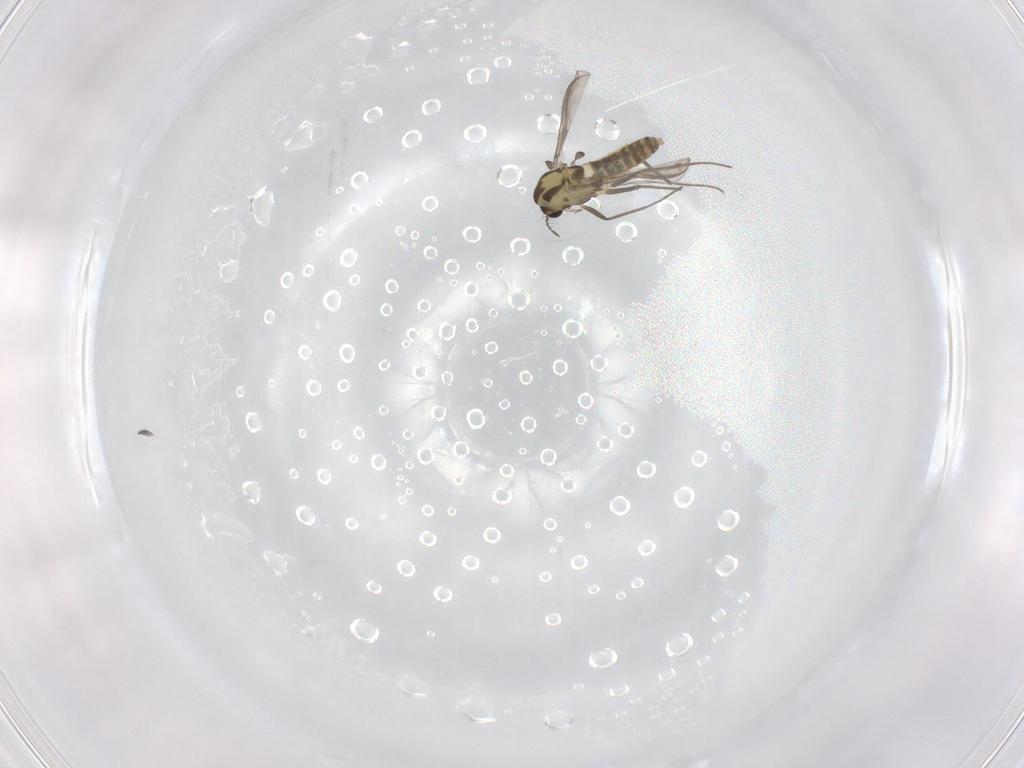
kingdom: Animalia
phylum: Arthropoda
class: Insecta
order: Diptera
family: Chironomidae
